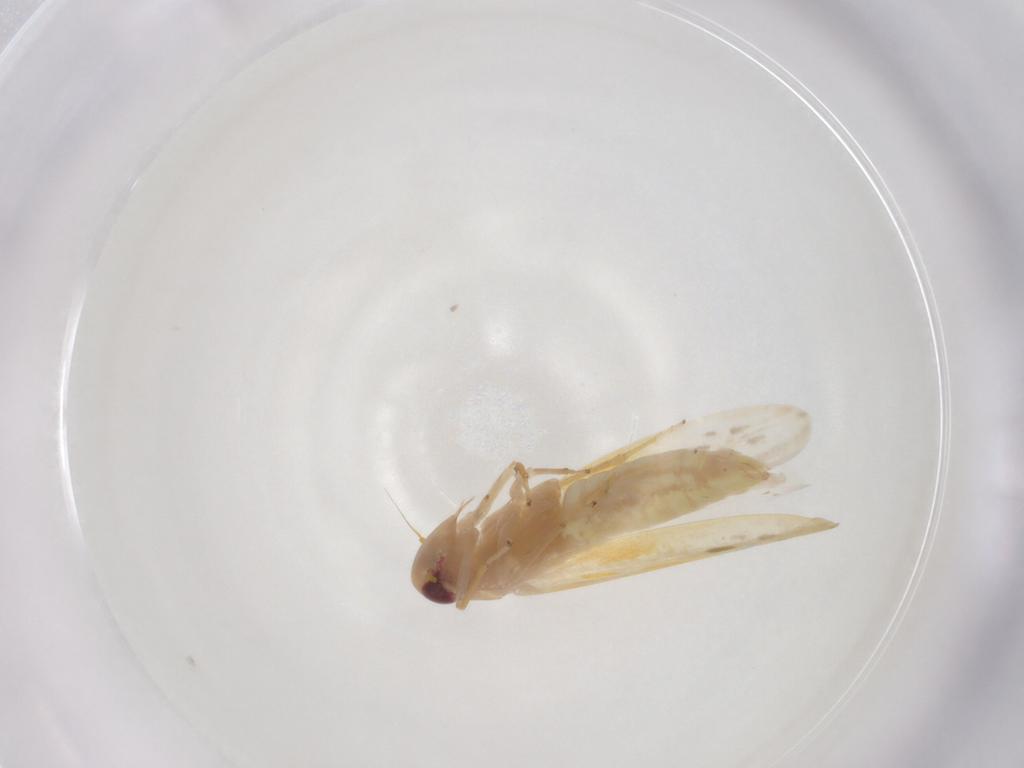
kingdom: Animalia
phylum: Arthropoda
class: Insecta
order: Hemiptera
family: Cicadellidae
